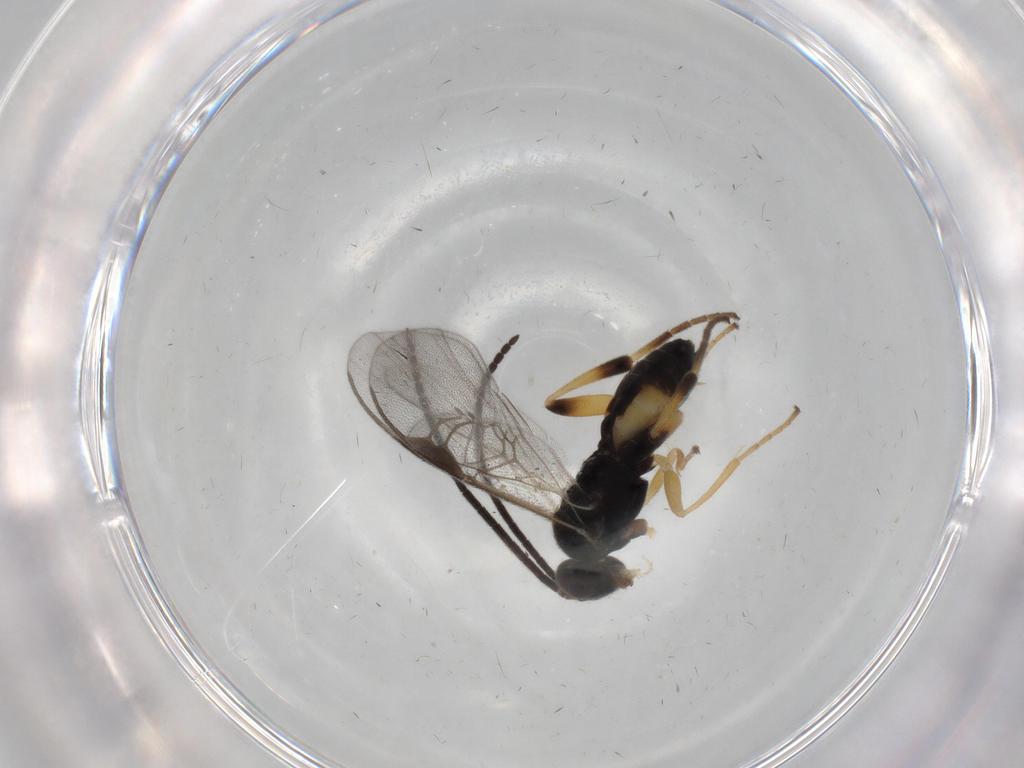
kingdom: Animalia
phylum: Arthropoda
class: Insecta
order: Hymenoptera
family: Braconidae
